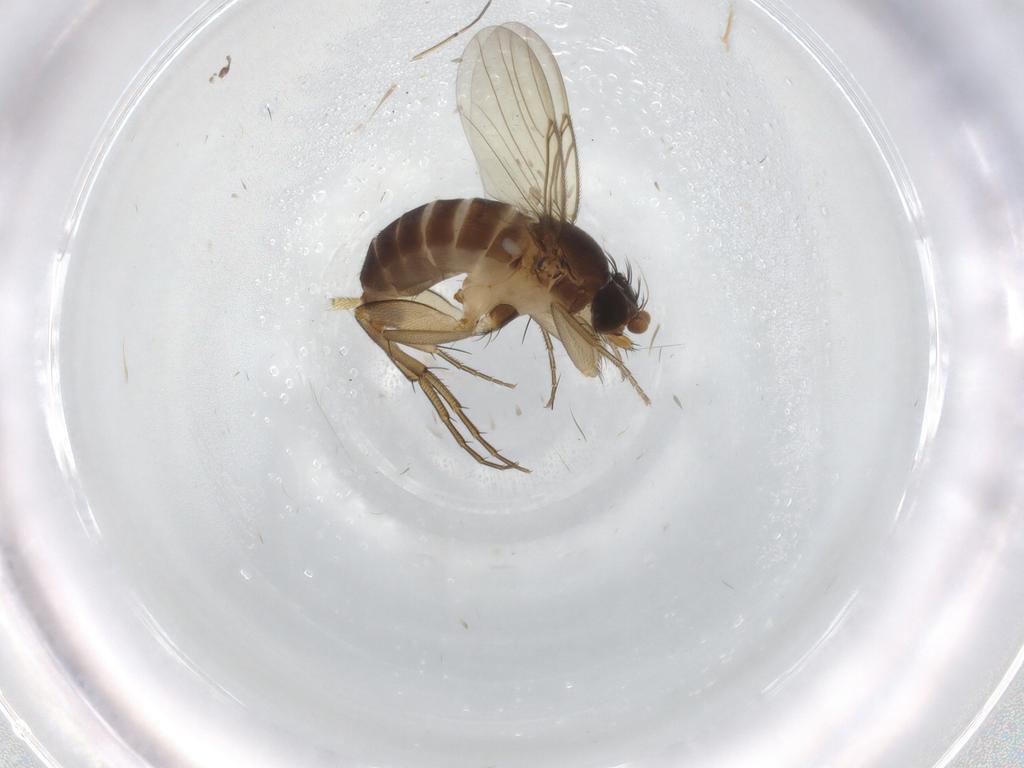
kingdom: Animalia
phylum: Arthropoda
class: Insecta
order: Diptera
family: Phoridae
